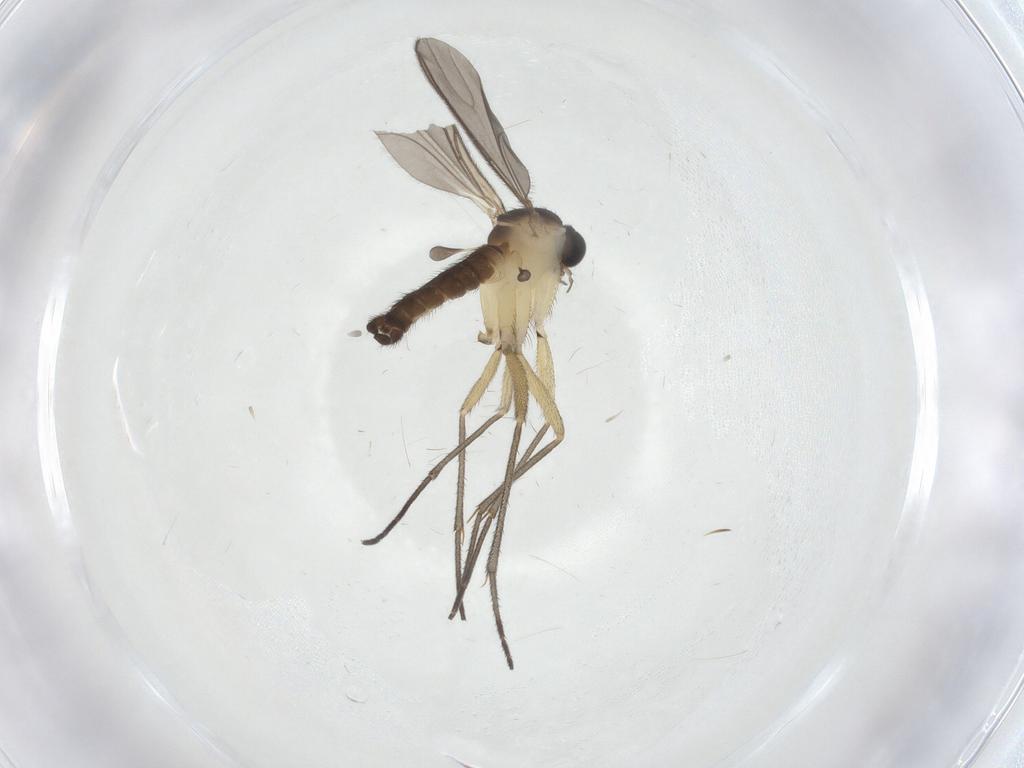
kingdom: Animalia
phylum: Arthropoda
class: Insecta
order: Diptera
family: Sciaridae
